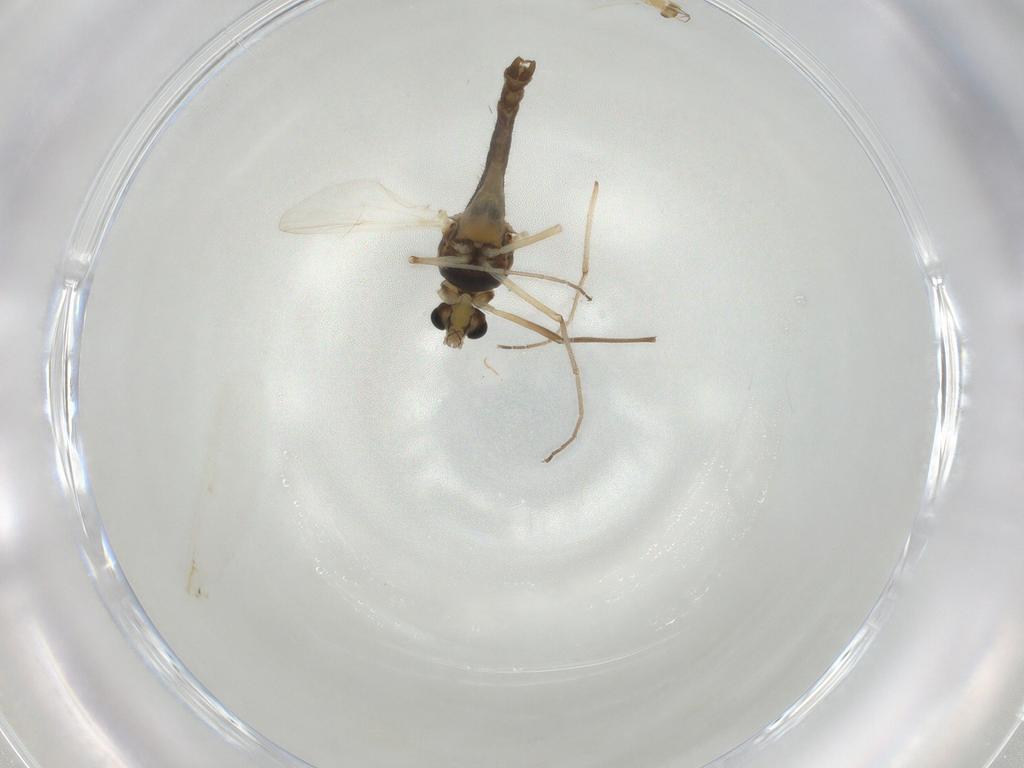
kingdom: Animalia
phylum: Arthropoda
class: Insecta
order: Diptera
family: Chironomidae
